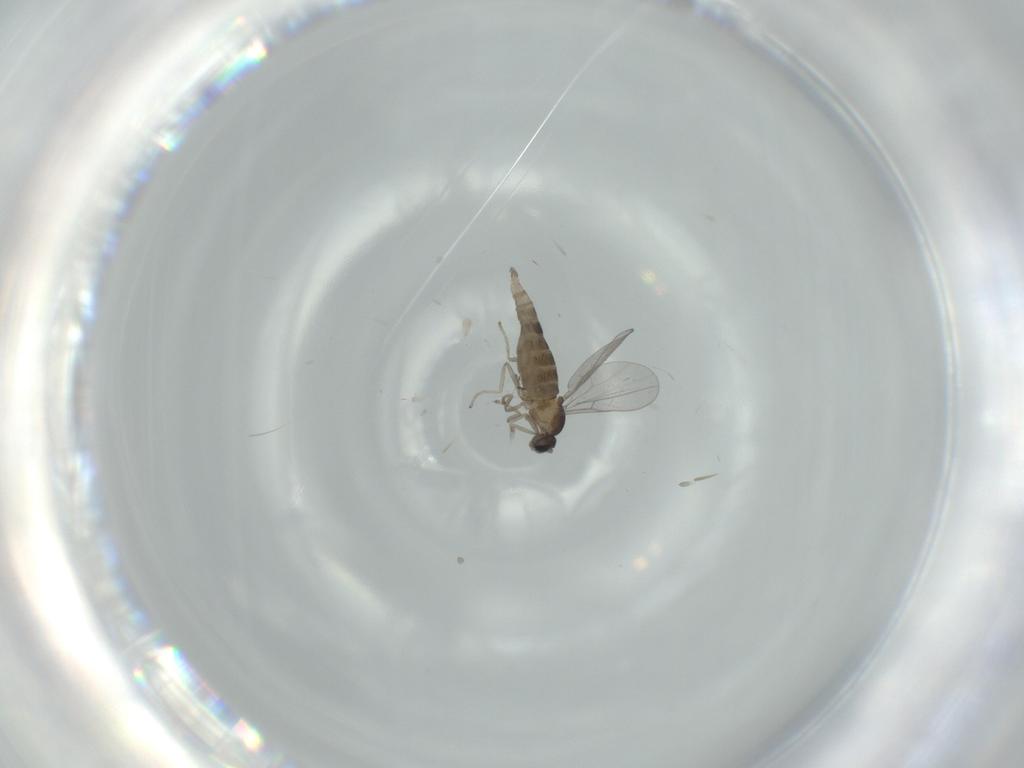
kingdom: Animalia
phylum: Arthropoda
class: Insecta
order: Diptera
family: Cecidomyiidae
